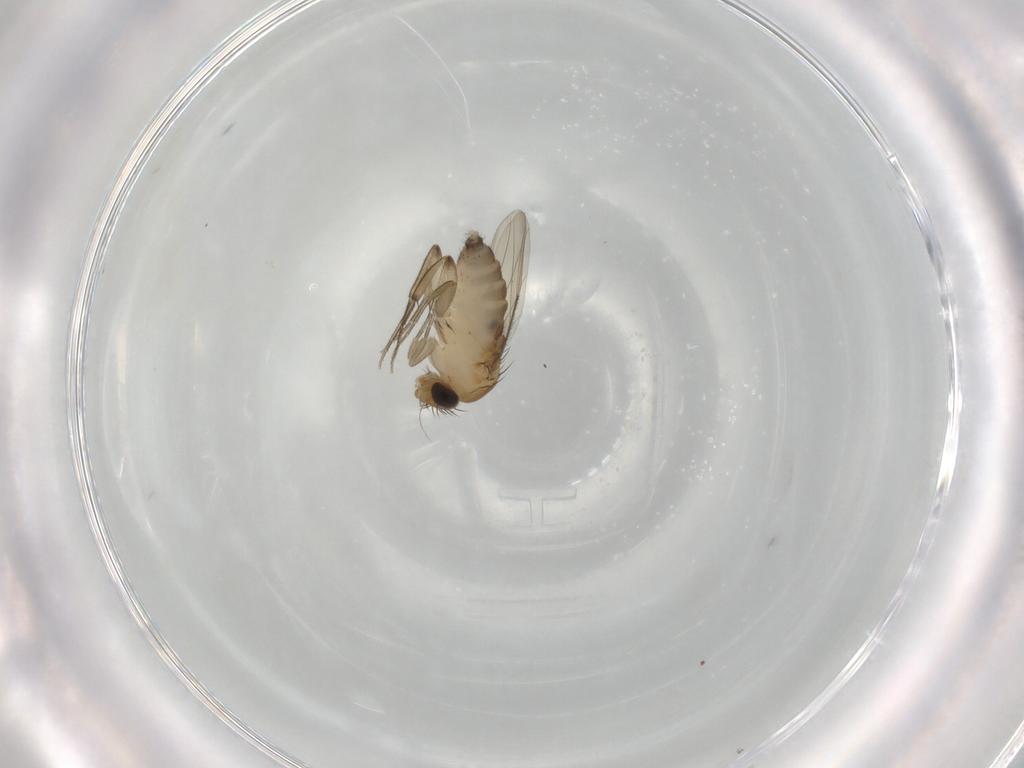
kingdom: Animalia
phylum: Arthropoda
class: Insecta
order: Diptera
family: Phoridae
